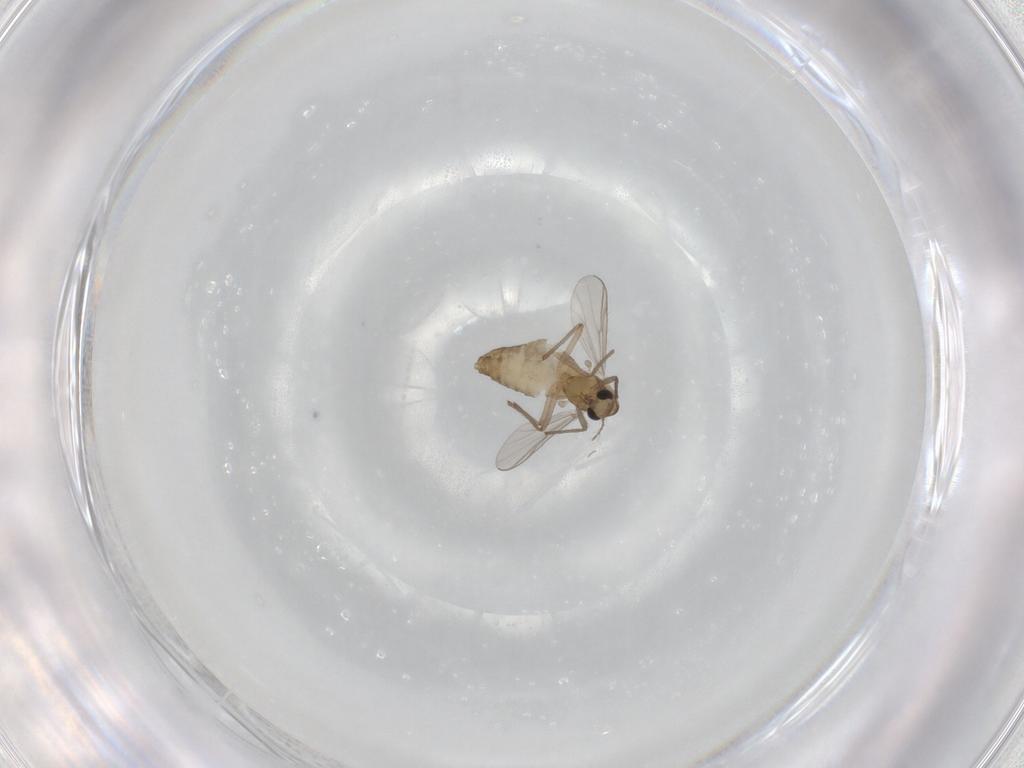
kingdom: Animalia
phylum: Arthropoda
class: Insecta
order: Diptera
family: Chironomidae
